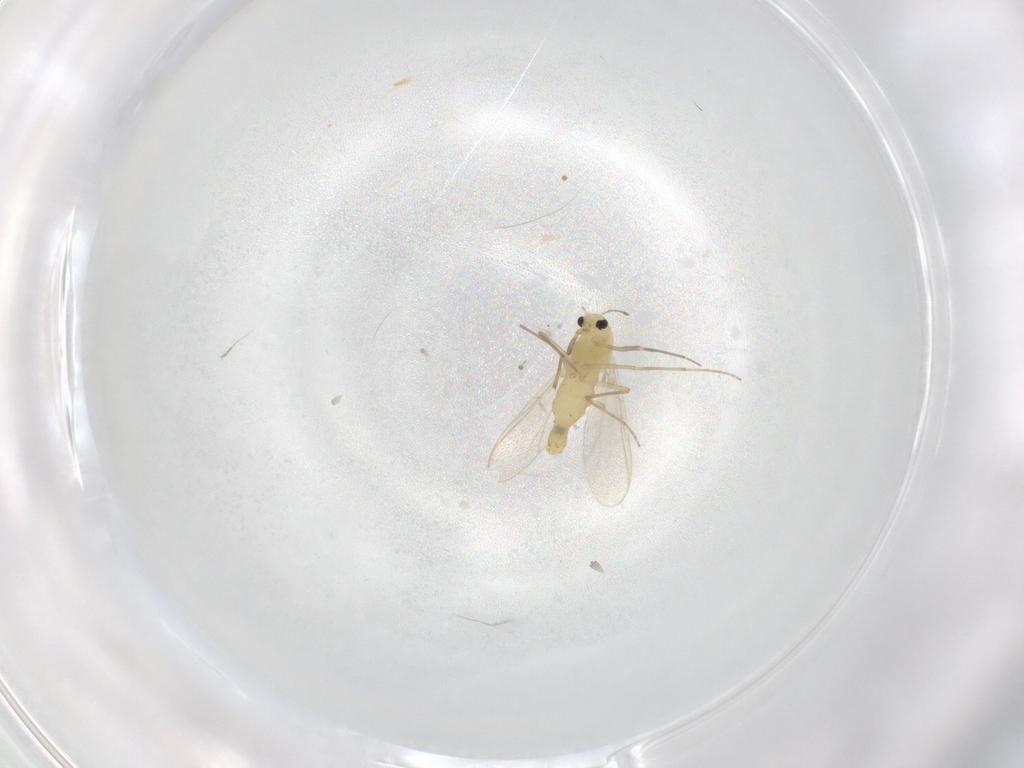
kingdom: Animalia
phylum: Arthropoda
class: Insecta
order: Diptera
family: Chironomidae
